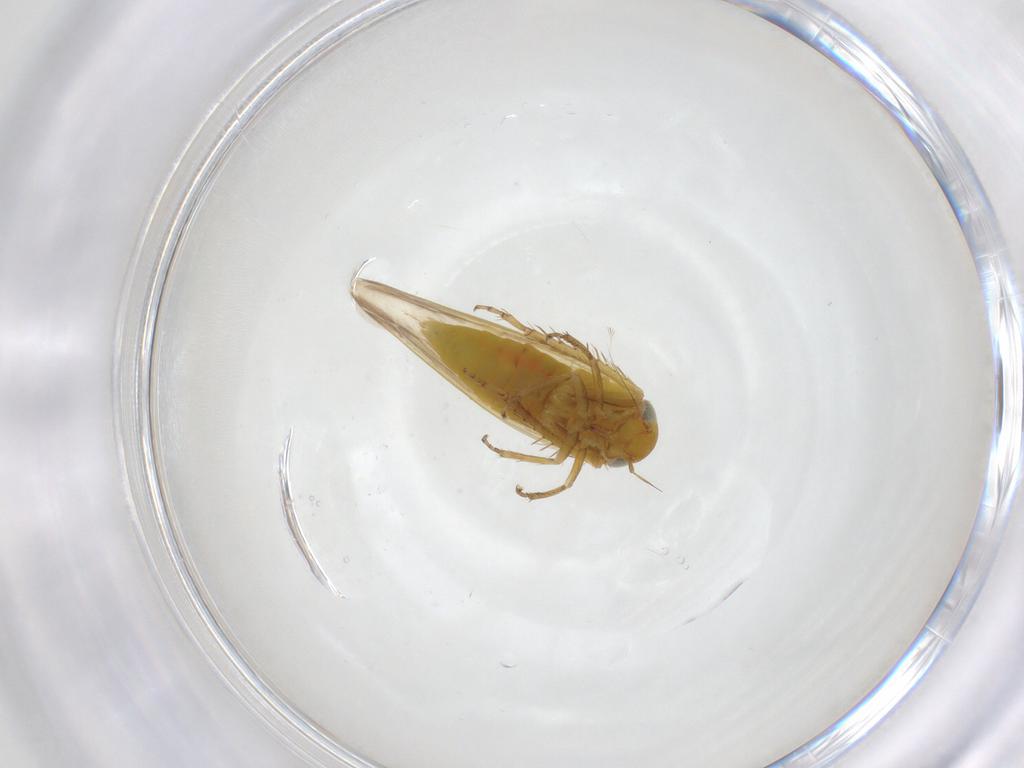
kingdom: Animalia
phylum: Arthropoda
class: Insecta
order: Hemiptera
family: Cicadellidae
